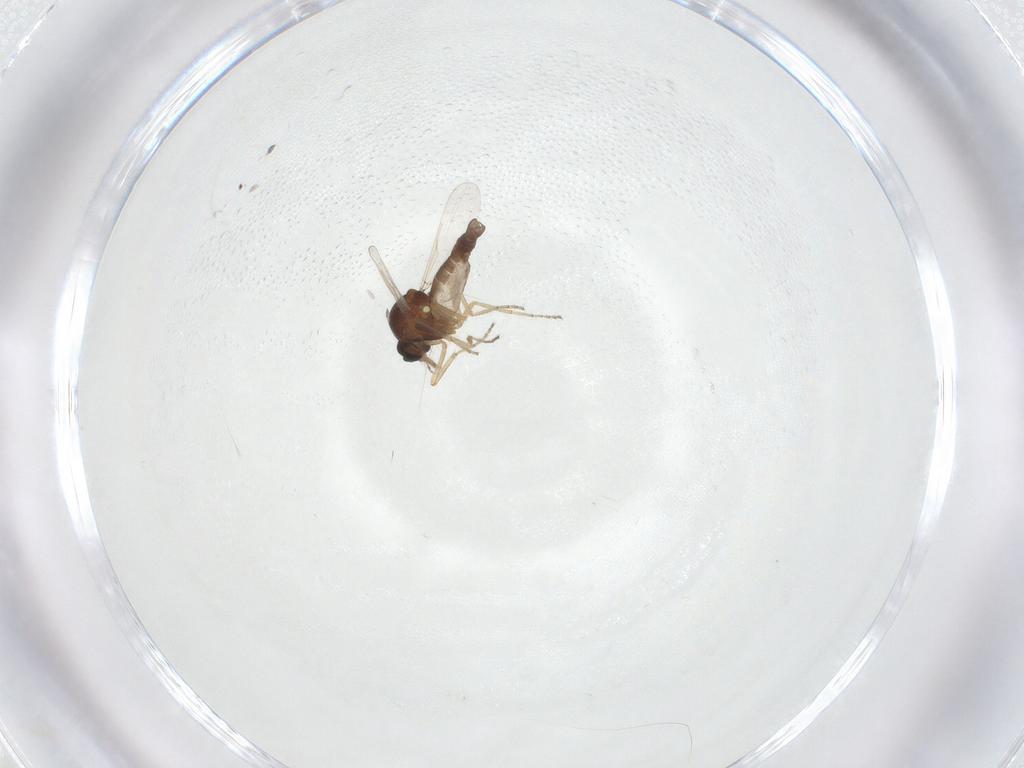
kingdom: Animalia
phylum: Arthropoda
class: Insecta
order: Diptera
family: Ceratopogonidae
